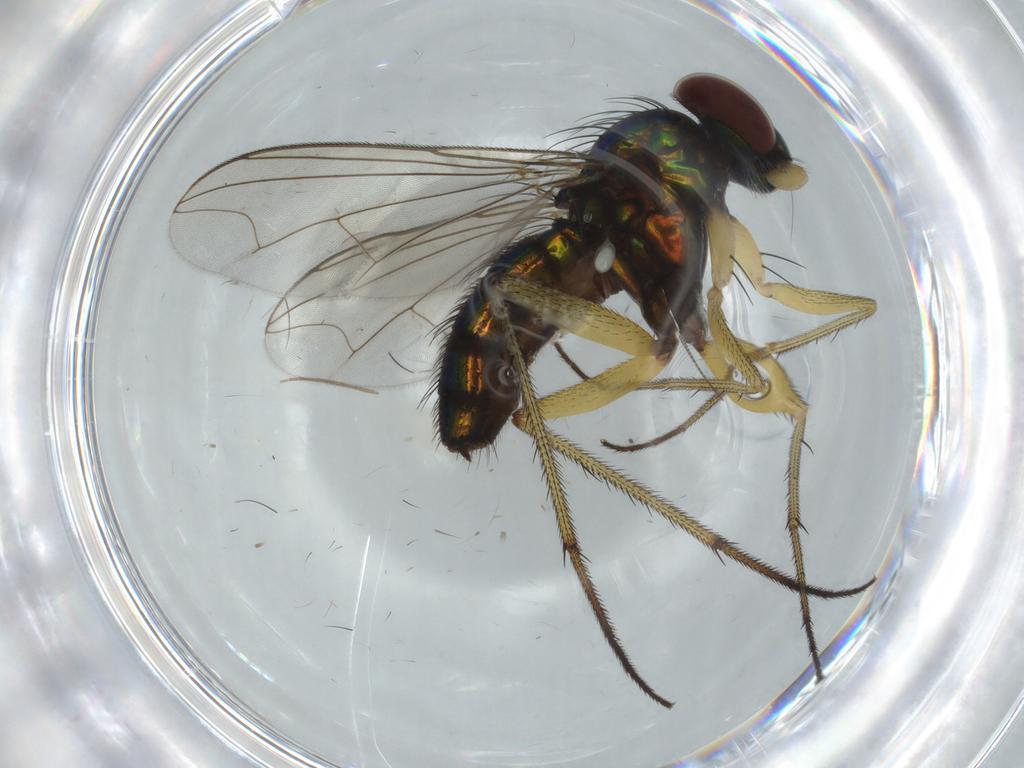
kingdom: Animalia
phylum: Arthropoda
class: Insecta
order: Diptera
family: Dolichopodidae
